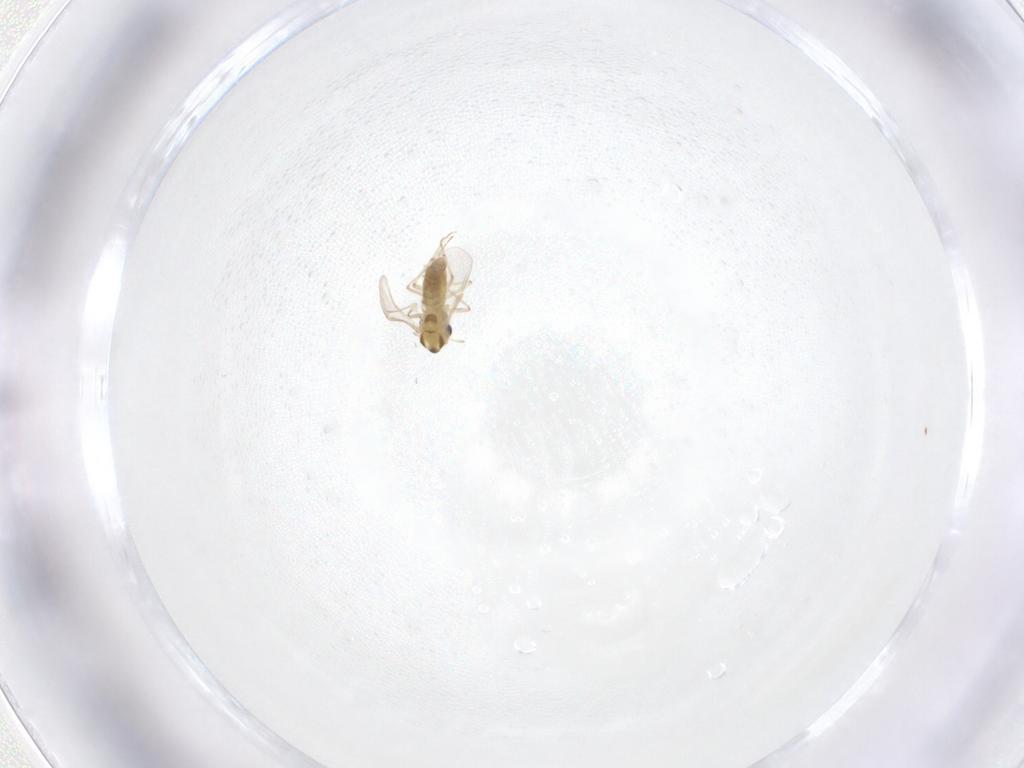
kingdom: Animalia
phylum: Arthropoda
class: Insecta
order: Diptera
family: Chironomidae
